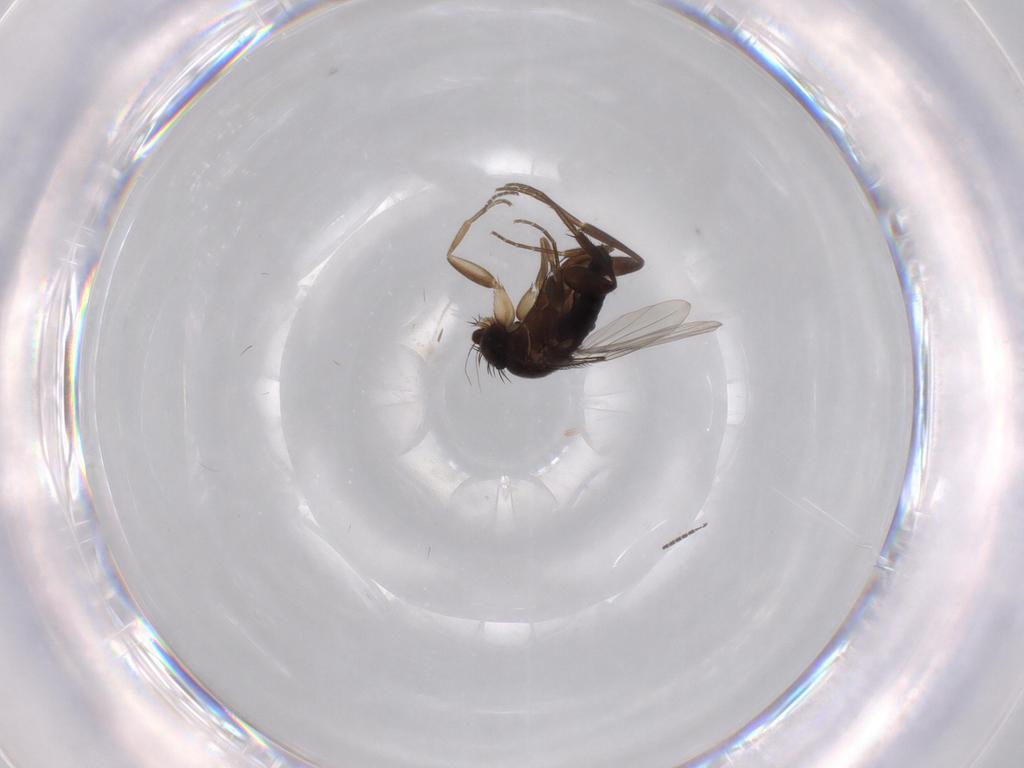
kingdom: Animalia
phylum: Arthropoda
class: Insecta
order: Diptera
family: Sciaridae
